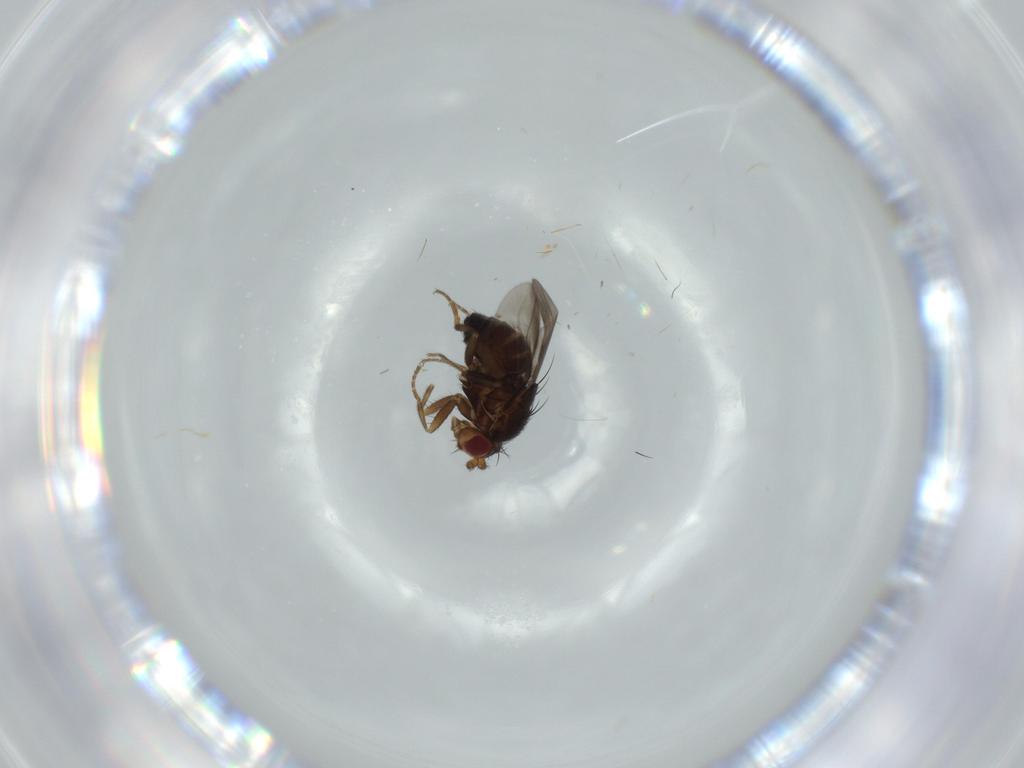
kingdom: Animalia
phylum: Arthropoda
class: Insecta
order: Diptera
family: Sphaeroceridae
